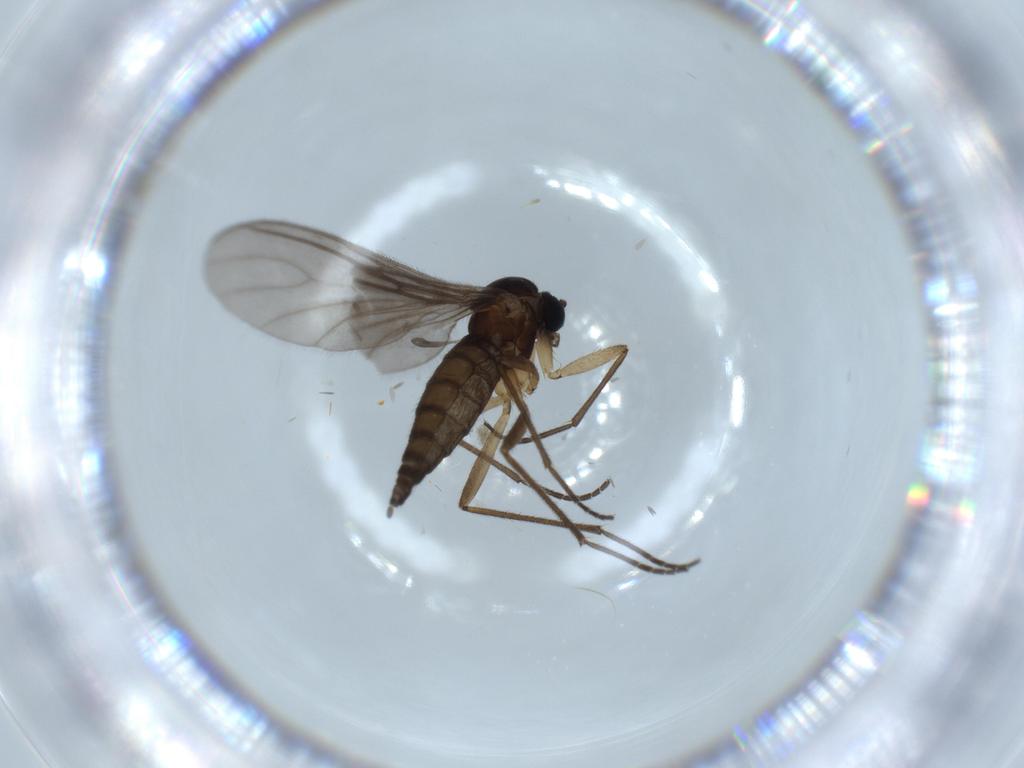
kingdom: Animalia
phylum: Arthropoda
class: Insecta
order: Diptera
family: Sciaridae
